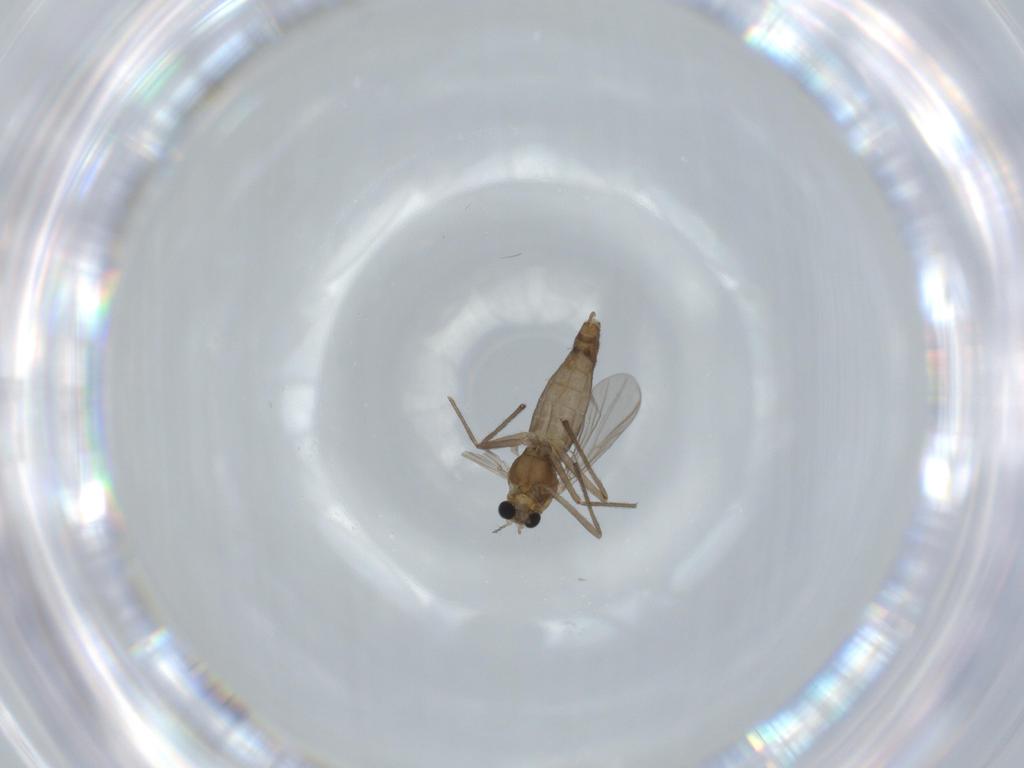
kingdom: Animalia
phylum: Arthropoda
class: Insecta
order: Diptera
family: Chironomidae
